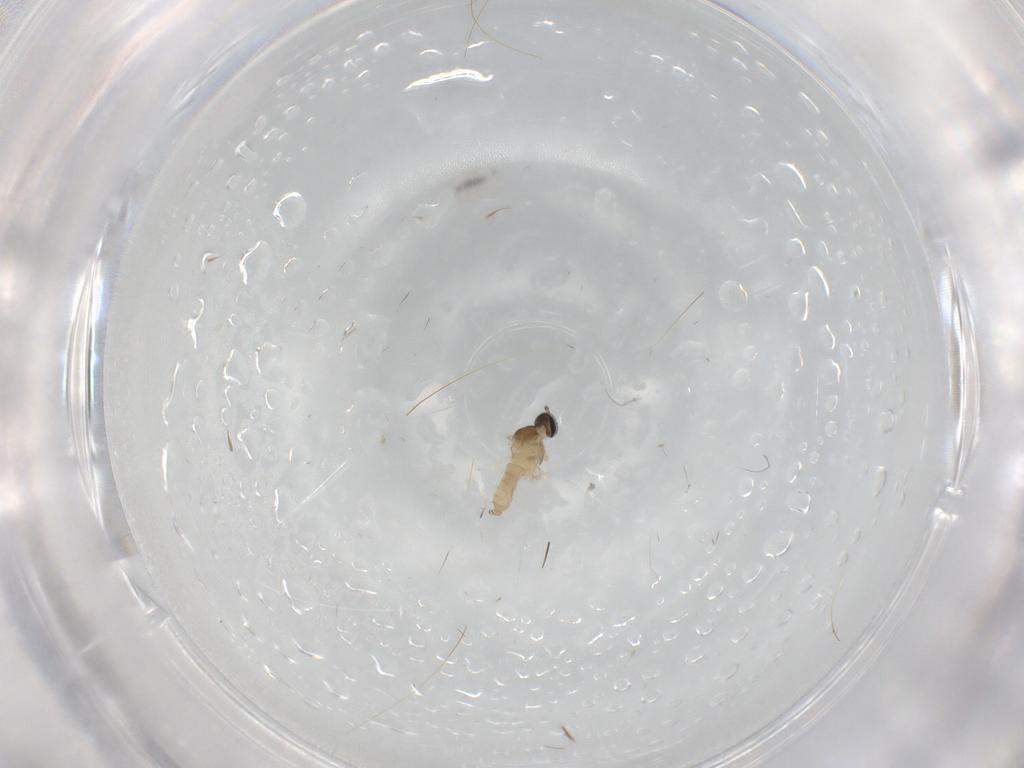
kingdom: Animalia
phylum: Arthropoda
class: Insecta
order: Diptera
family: Cecidomyiidae
